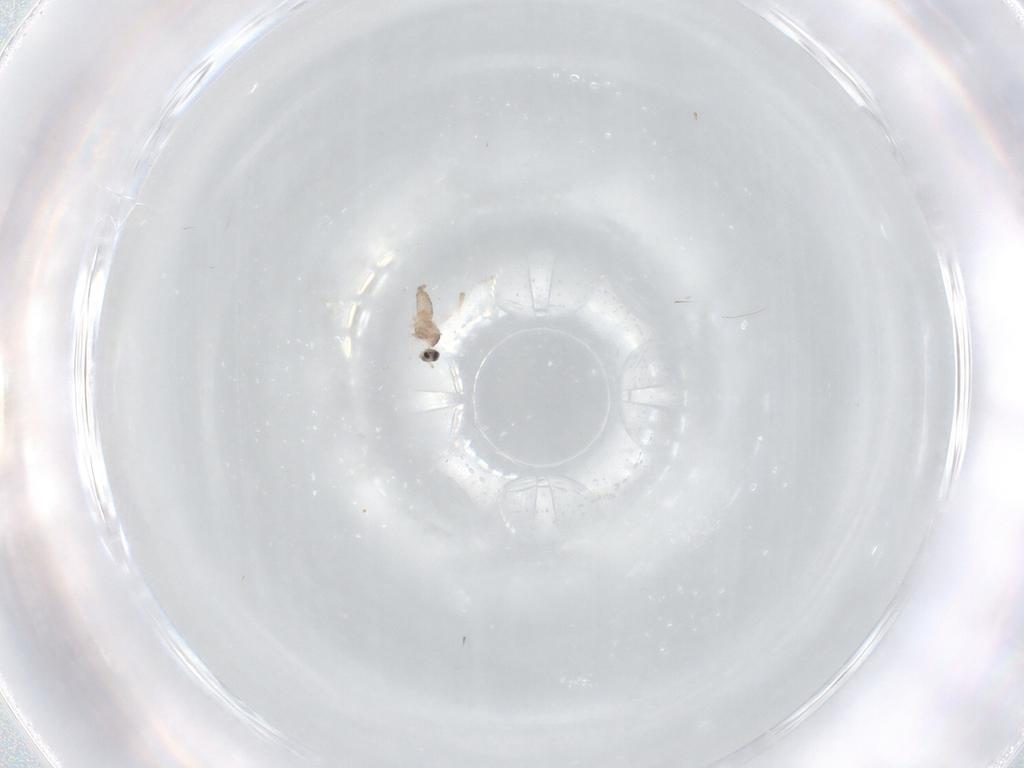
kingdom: Animalia
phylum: Arthropoda
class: Insecta
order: Diptera
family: Cecidomyiidae
